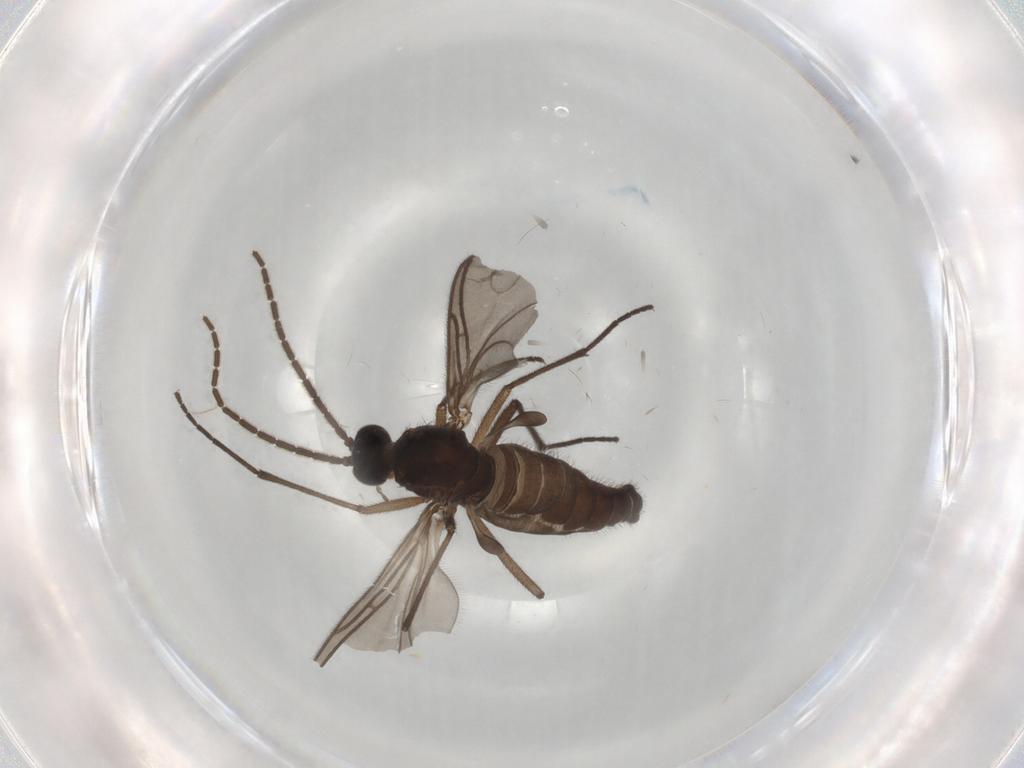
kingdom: Animalia
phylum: Arthropoda
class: Insecta
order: Diptera
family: Sciaridae
